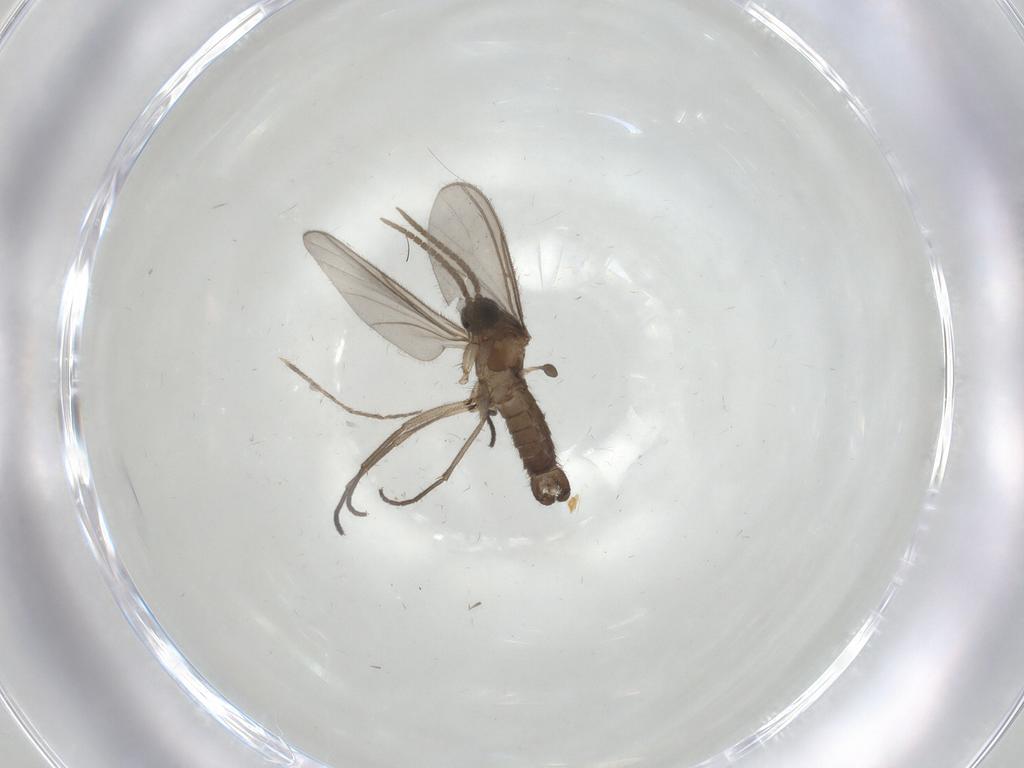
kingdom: Animalia
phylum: Arthropoda
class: Insecta
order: Diptera
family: Cecidomyiidae
